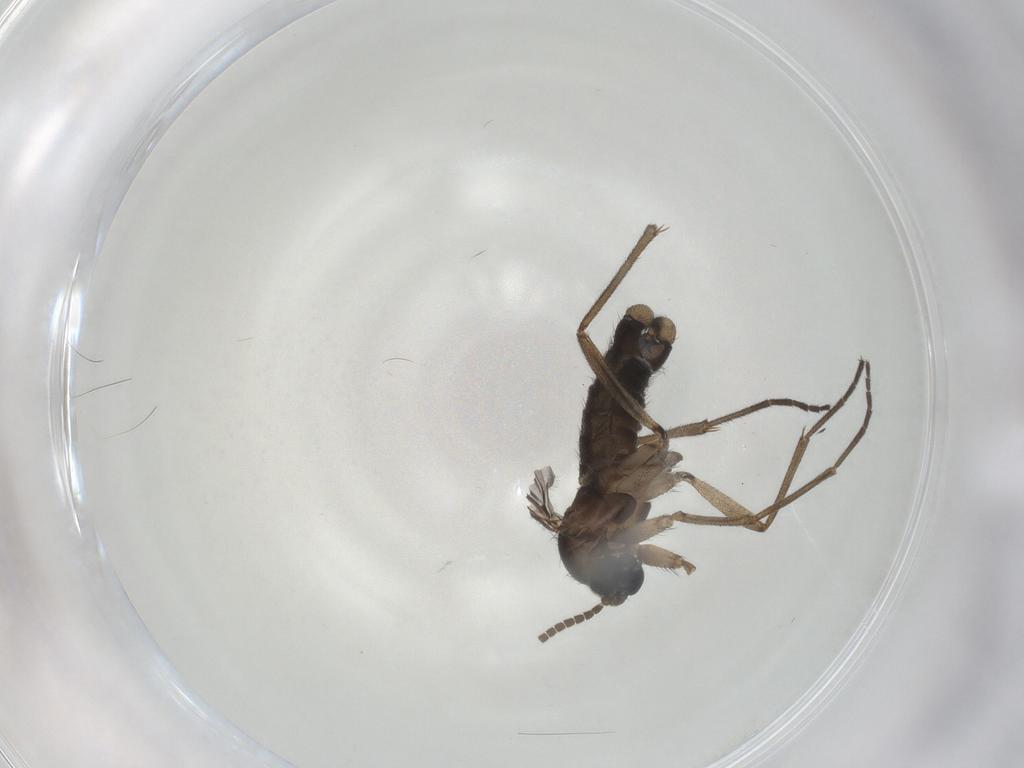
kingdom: Animalia
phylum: Arthropoda
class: Insecta
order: Diptera
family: Sciaridae
